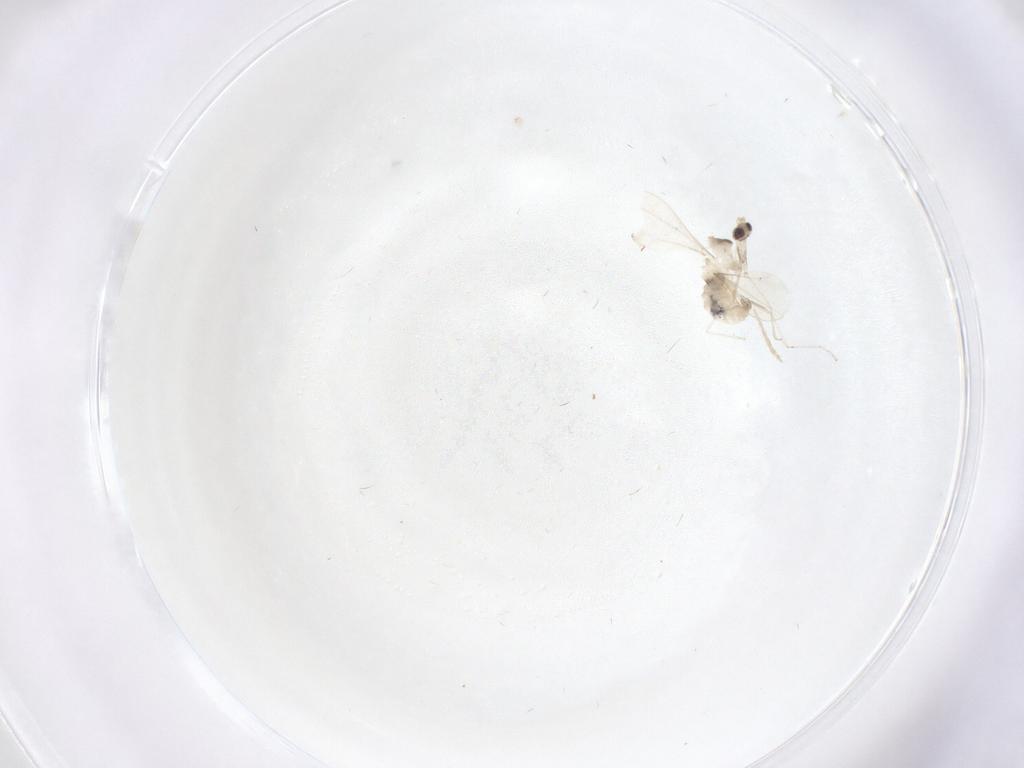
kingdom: Animalia
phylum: Arthropoda
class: Insecta
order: Diptera
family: Cecidomyiidae
